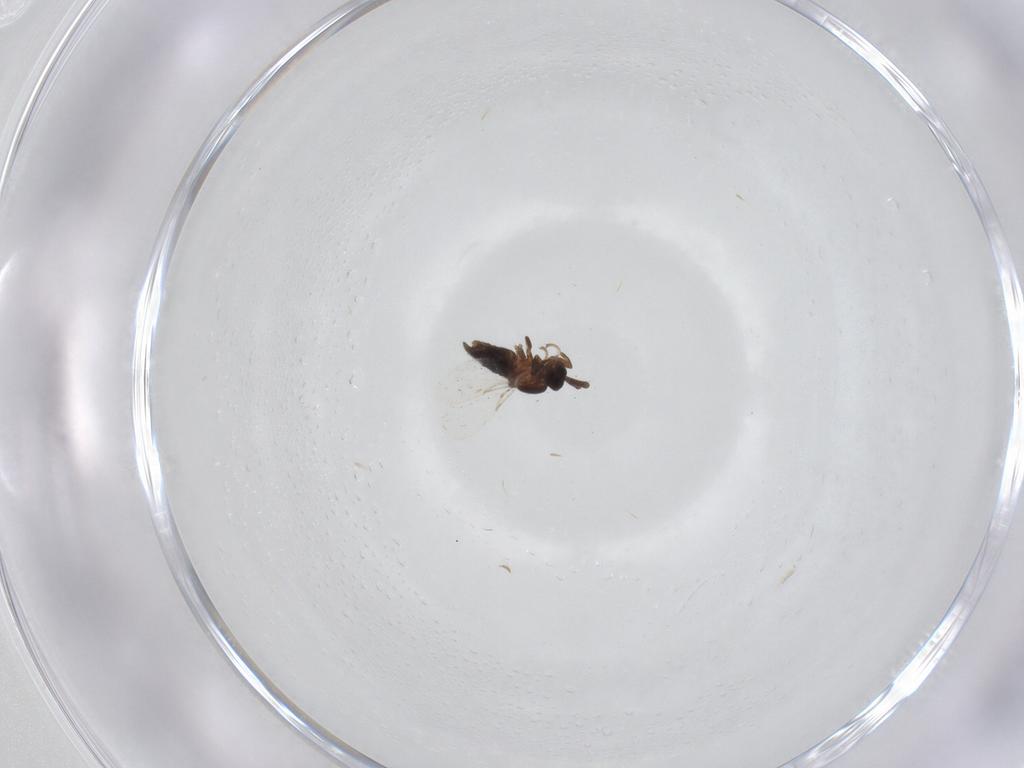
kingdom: Animalia
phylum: Arthropoda
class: Insecta
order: Diptera
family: Scatopsidae
